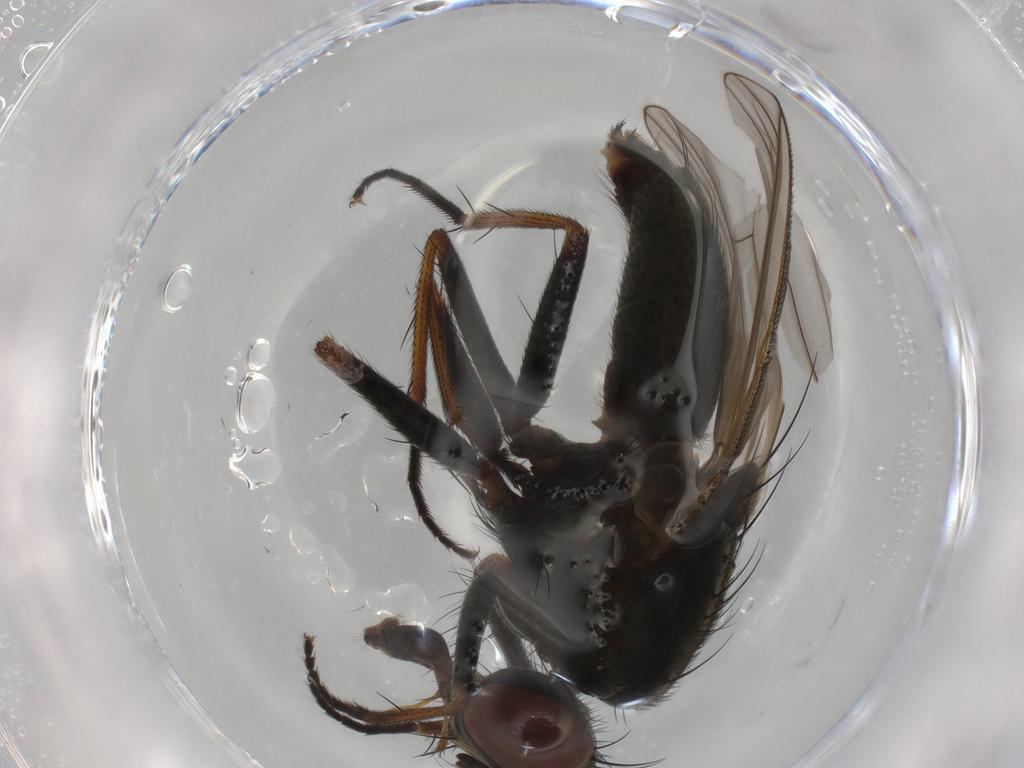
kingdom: Animalia
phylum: Arthropoda
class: Insecta
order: Diptera
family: Muscidae
